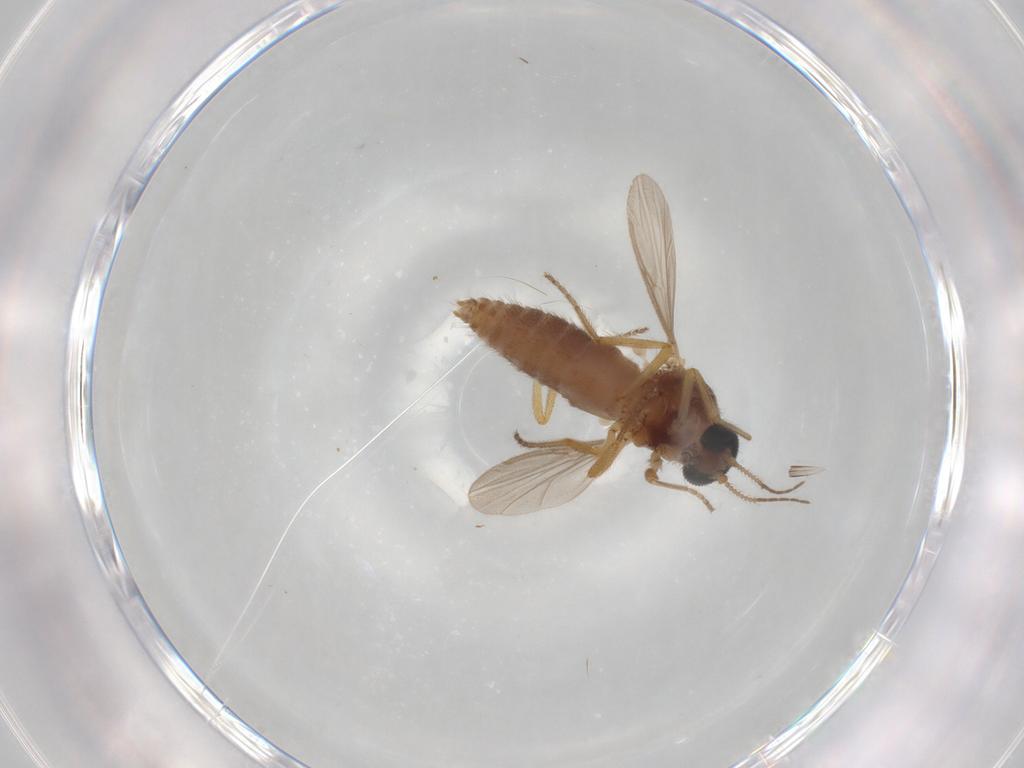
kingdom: Animalia
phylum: Arthropoda
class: Insecta
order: Diptera
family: Ceratopogonidae
